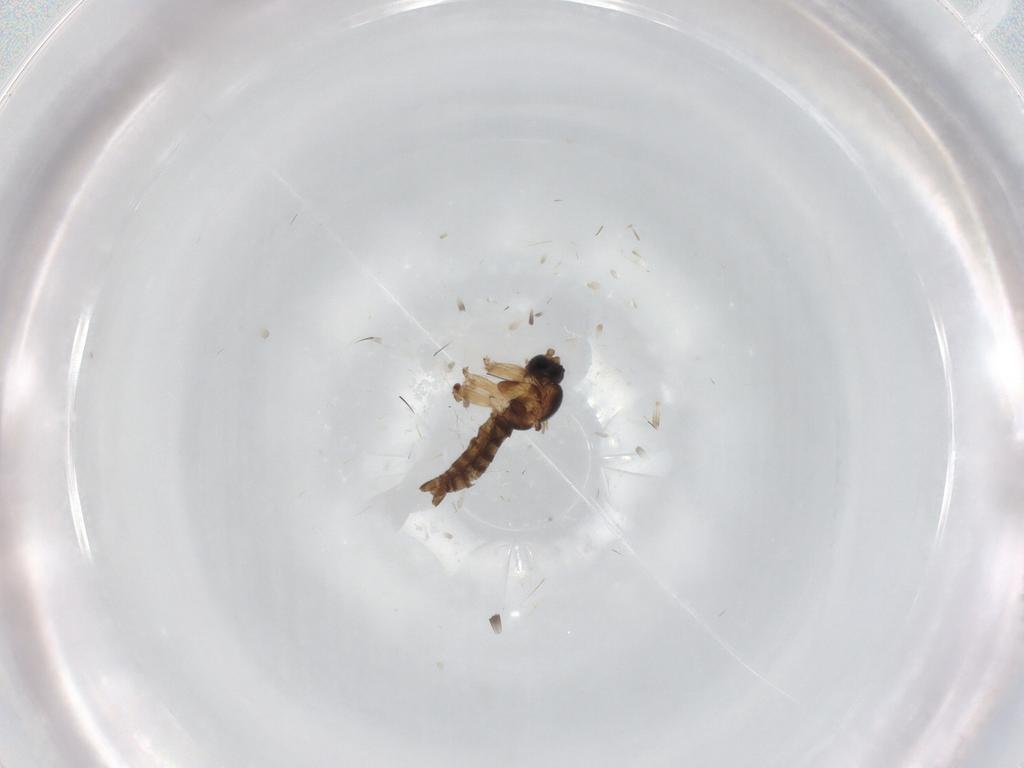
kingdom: Animalia
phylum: Arthropoda
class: Insecta
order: Diptera
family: Sciaridae
